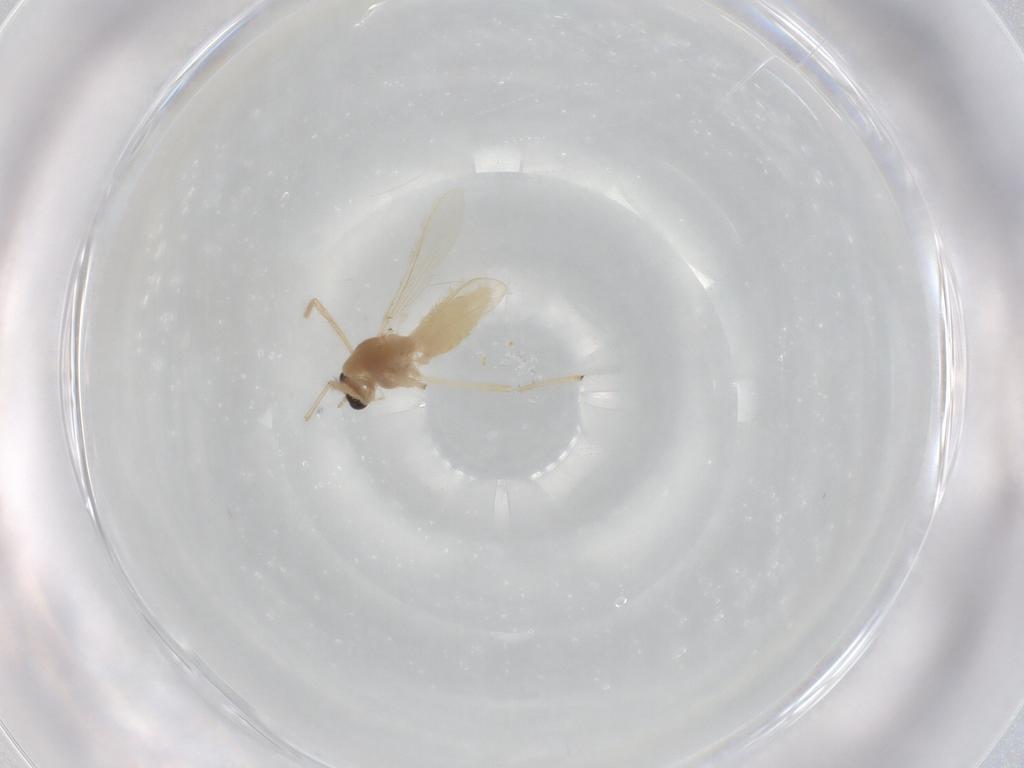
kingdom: Animalia
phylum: Arthropoda
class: Insecta
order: Diptera
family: Chironomidae
